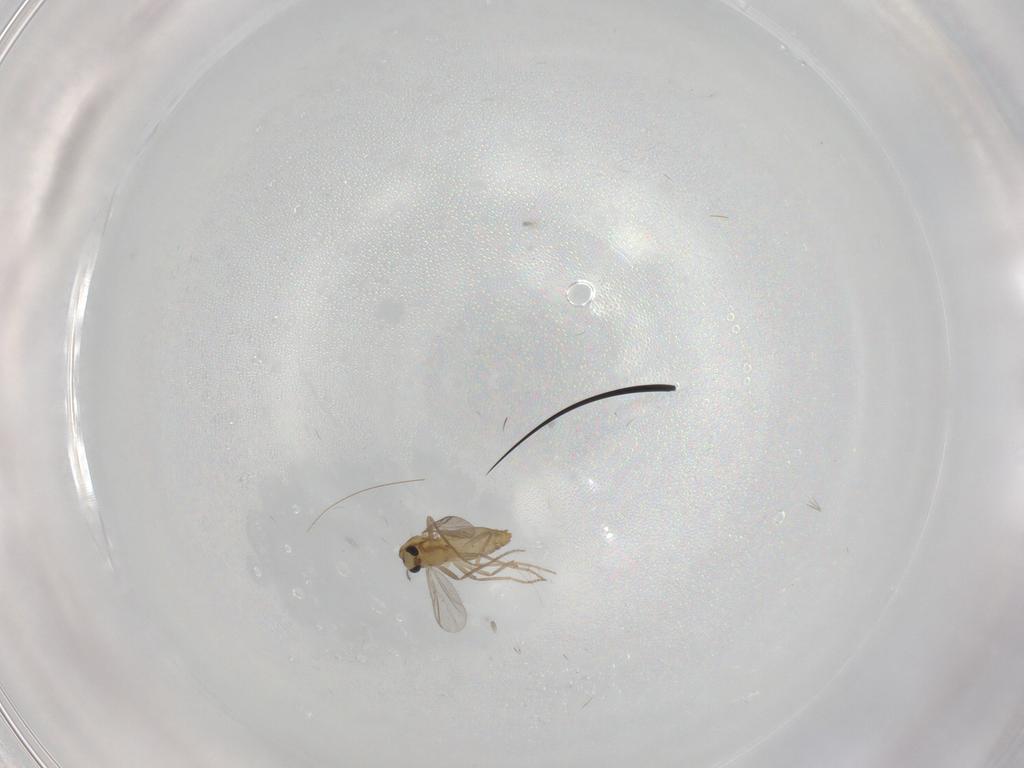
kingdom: Animalia
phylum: Arthropoda
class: Insecta
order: Diptera
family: Chironomidae
